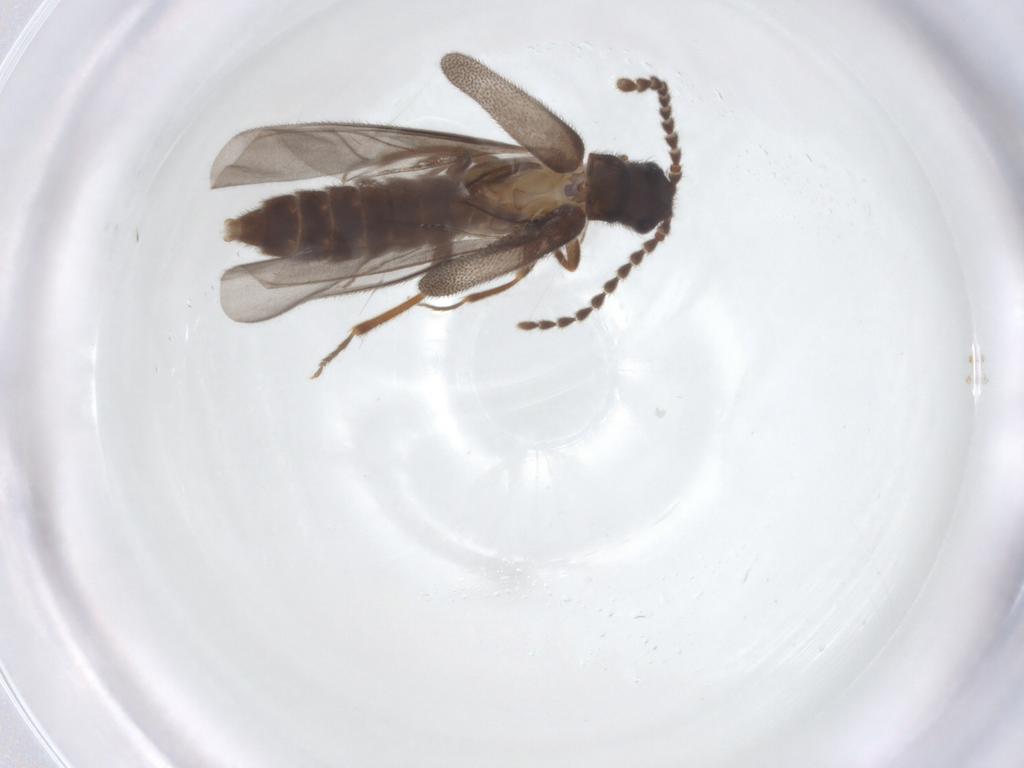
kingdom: Animalia
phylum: Arthropoda
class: Insecta
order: Coleoptera
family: Omethidae
